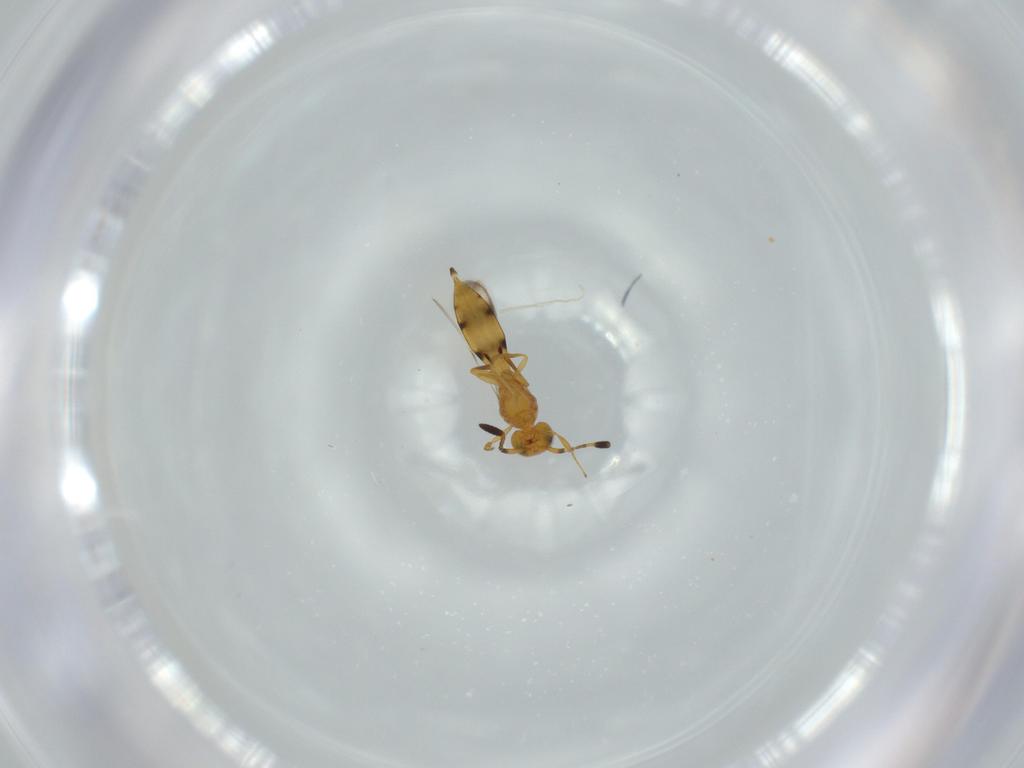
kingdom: Animalia
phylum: Arthropoda
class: Insecta
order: Hymenoptera
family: Scelionidae
